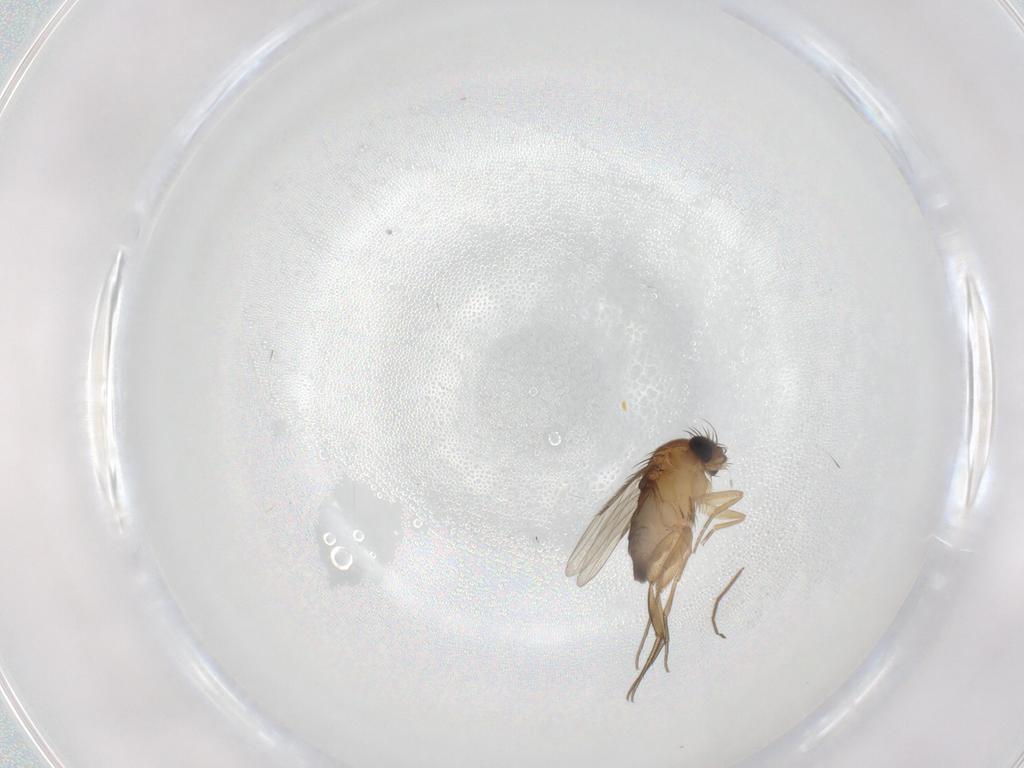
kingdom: Animalia
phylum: Arthropoda
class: Insecta
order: Diptera
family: Phoridae
